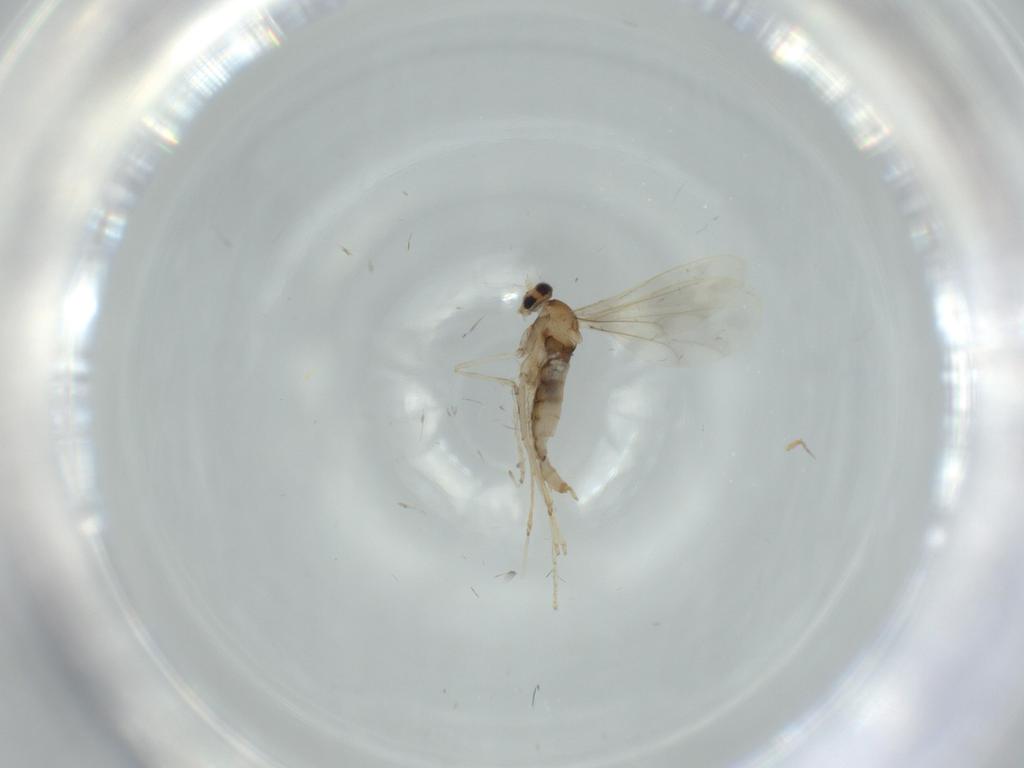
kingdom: Animalia
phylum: Arthropoda
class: Insecta
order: Diptera
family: Cecidomyiidae
